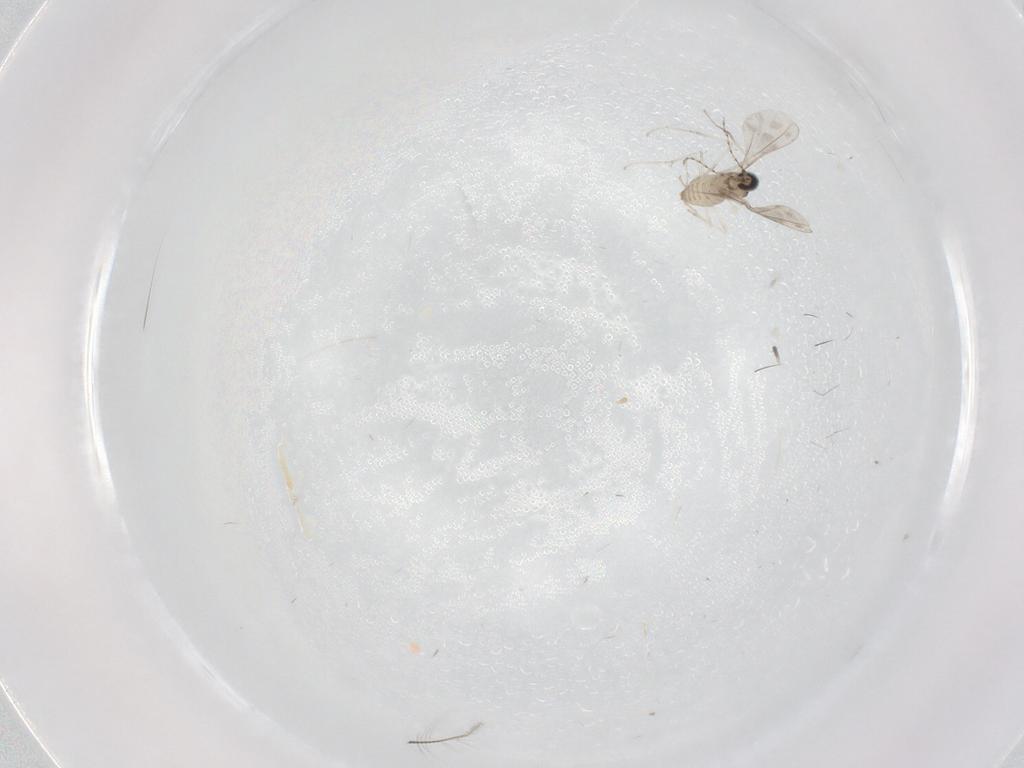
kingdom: Animalia
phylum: Arthropoda
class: Insecta
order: Diptera
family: Cecidomyiidae
